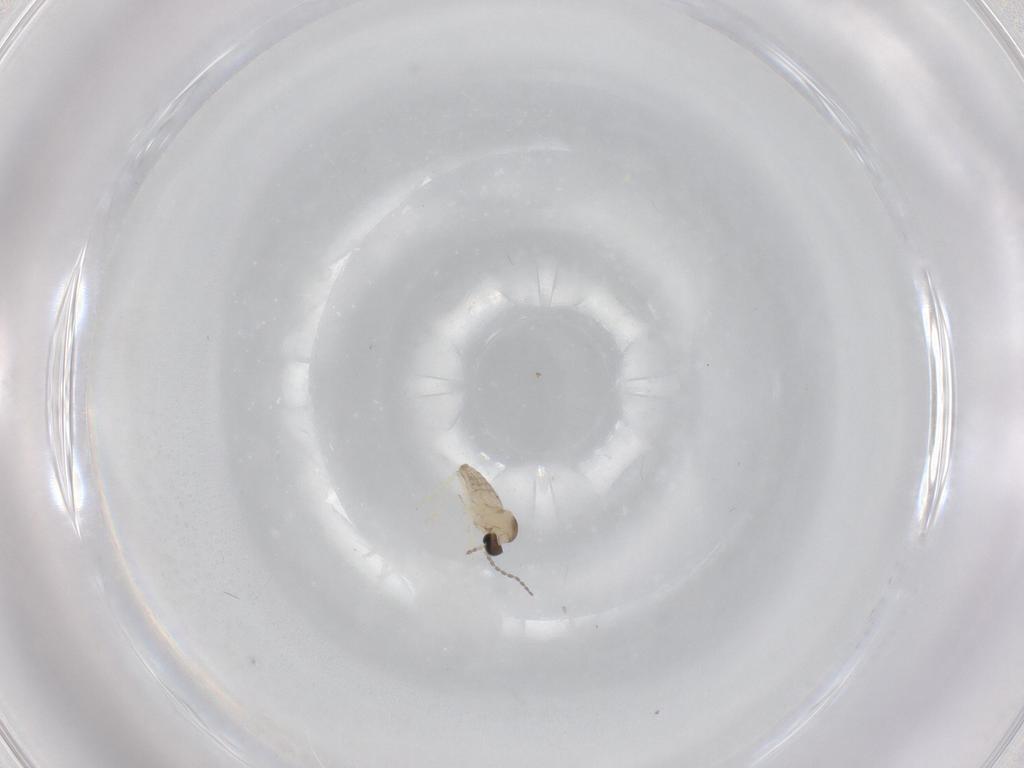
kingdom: Animalia
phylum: Arthropoda
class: Insecta
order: Diptera
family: Cecidomyiidae
